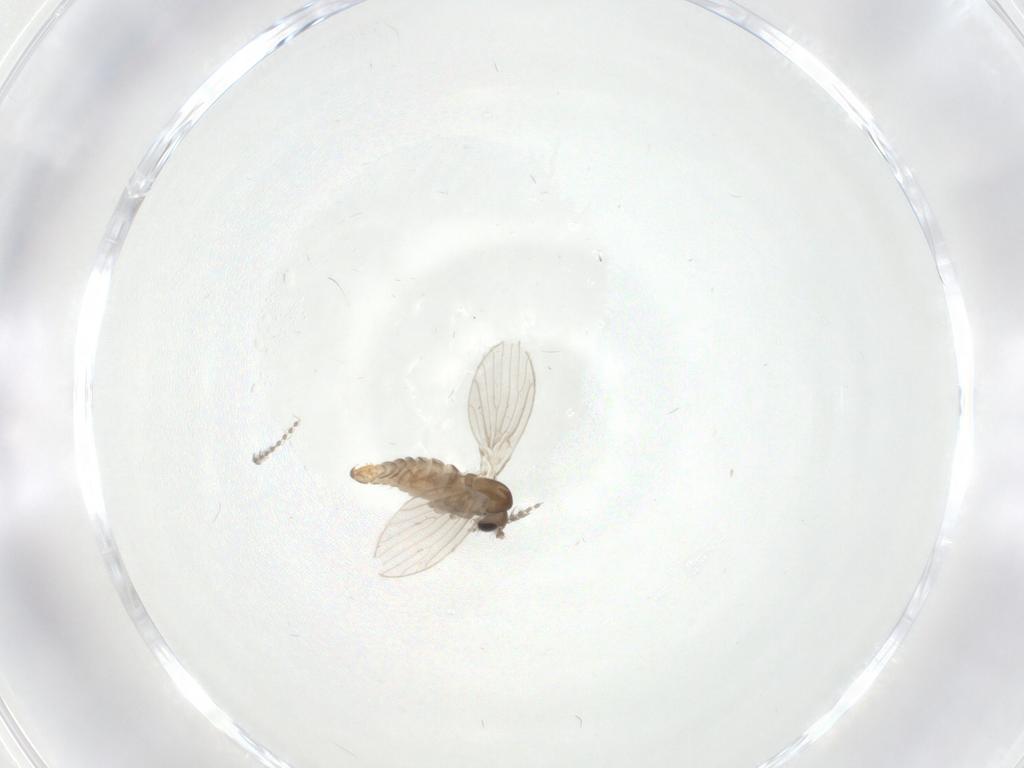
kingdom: Animalia
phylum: Arthropoda
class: Insecta
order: Diptera
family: Psychodidae
